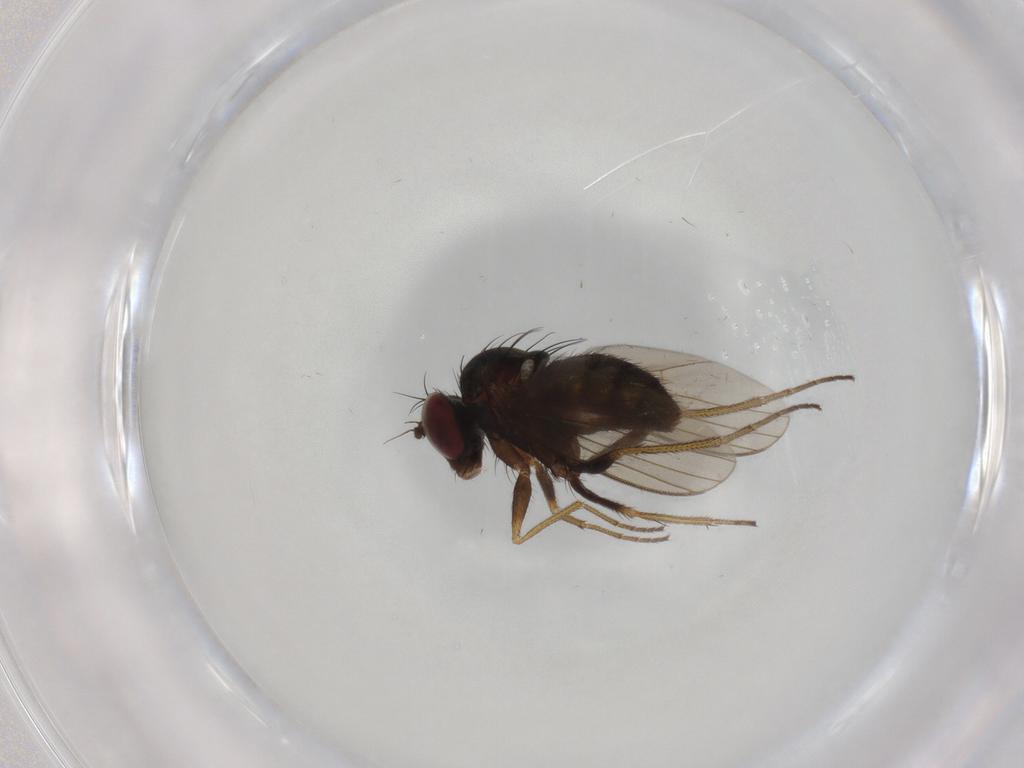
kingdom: Animalia
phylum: Arthropoda
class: Insecta
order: Diptera
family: Dolichopodidae
